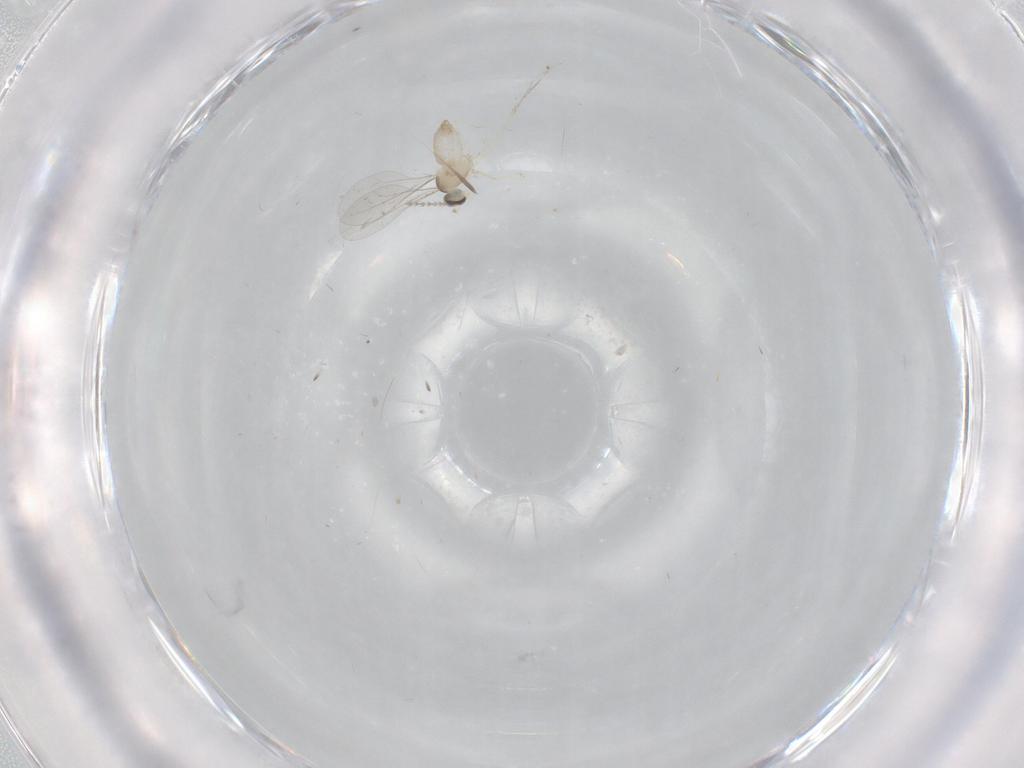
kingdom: Animalia
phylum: Arthropoda
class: Insecta
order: Diptera
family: Cecidomyiidae
